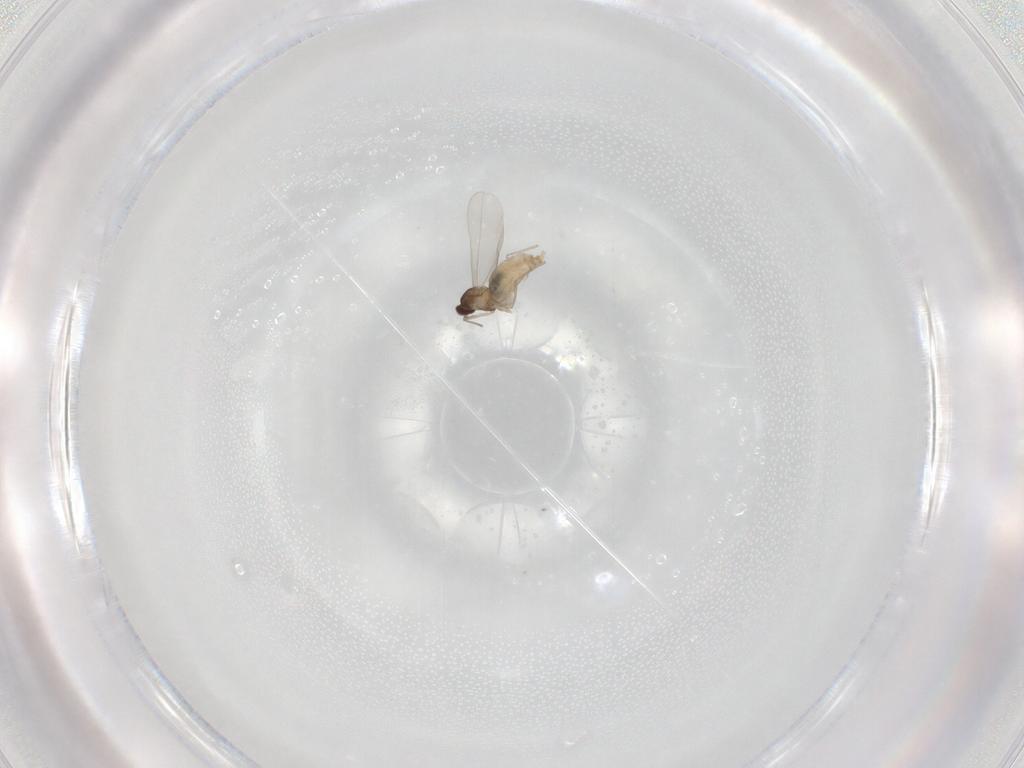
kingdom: Animalia
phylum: Arthropoda
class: Insecta
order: Diptera
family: Cecidomyiidae
